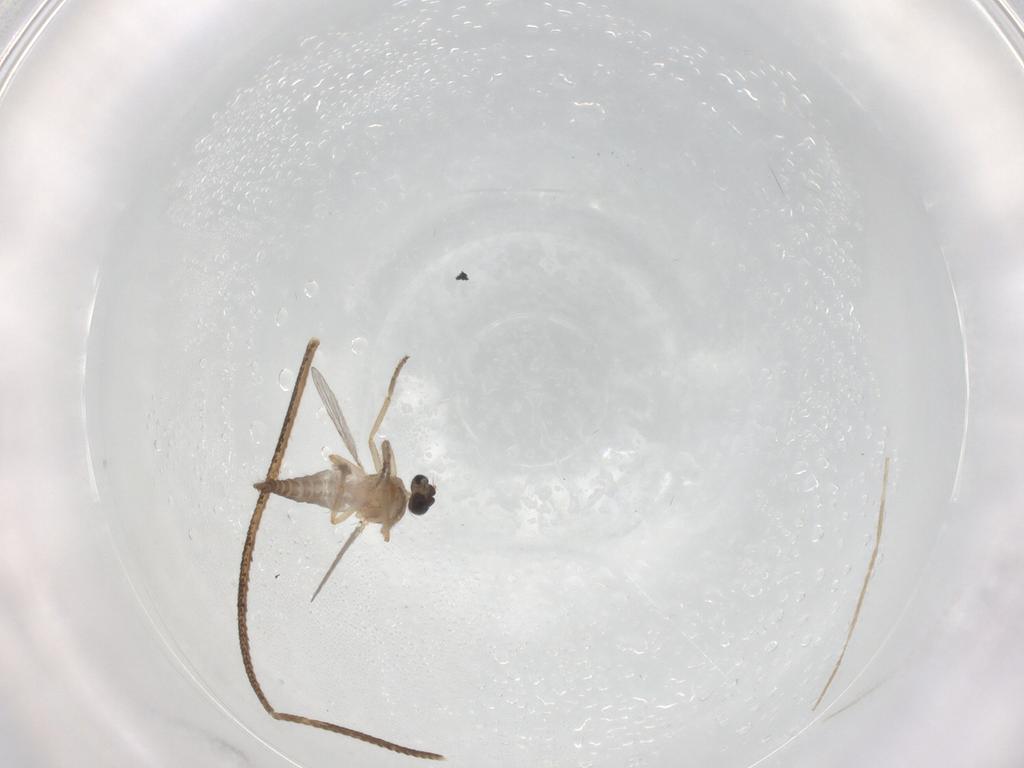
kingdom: Animalia
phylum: Arthropoda
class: Insecta
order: Diptera
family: Ceratopogonidae
